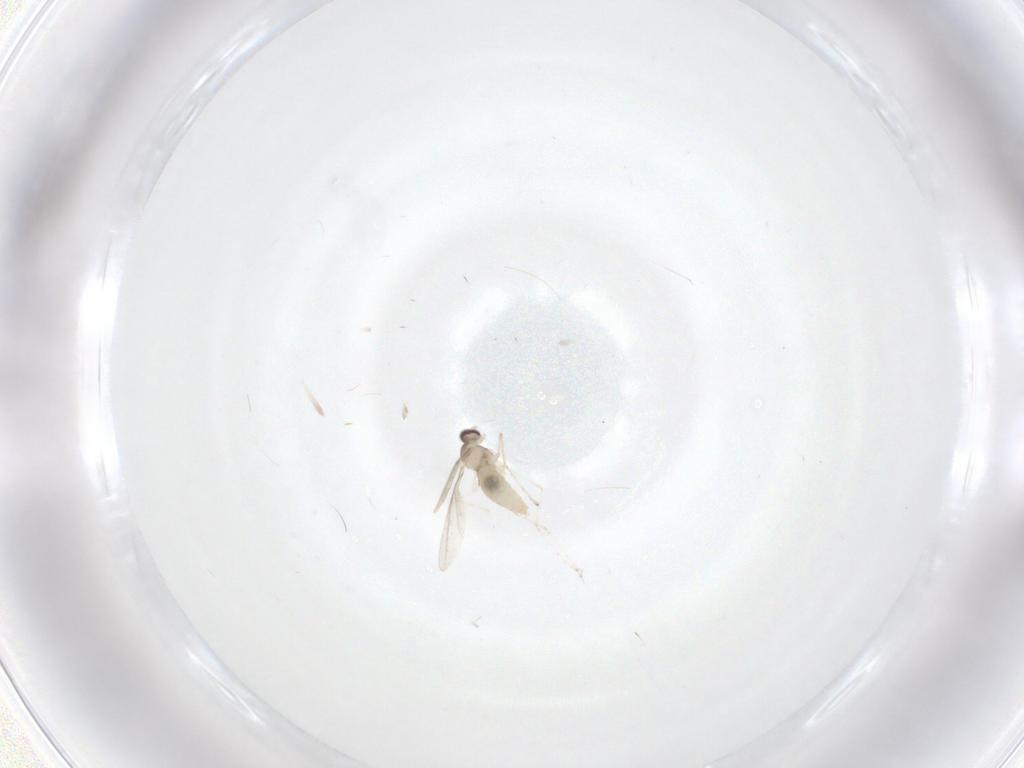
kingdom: Animalia
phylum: Arthropoda
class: Insecta
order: Diptera
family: Cecidomyiidae
